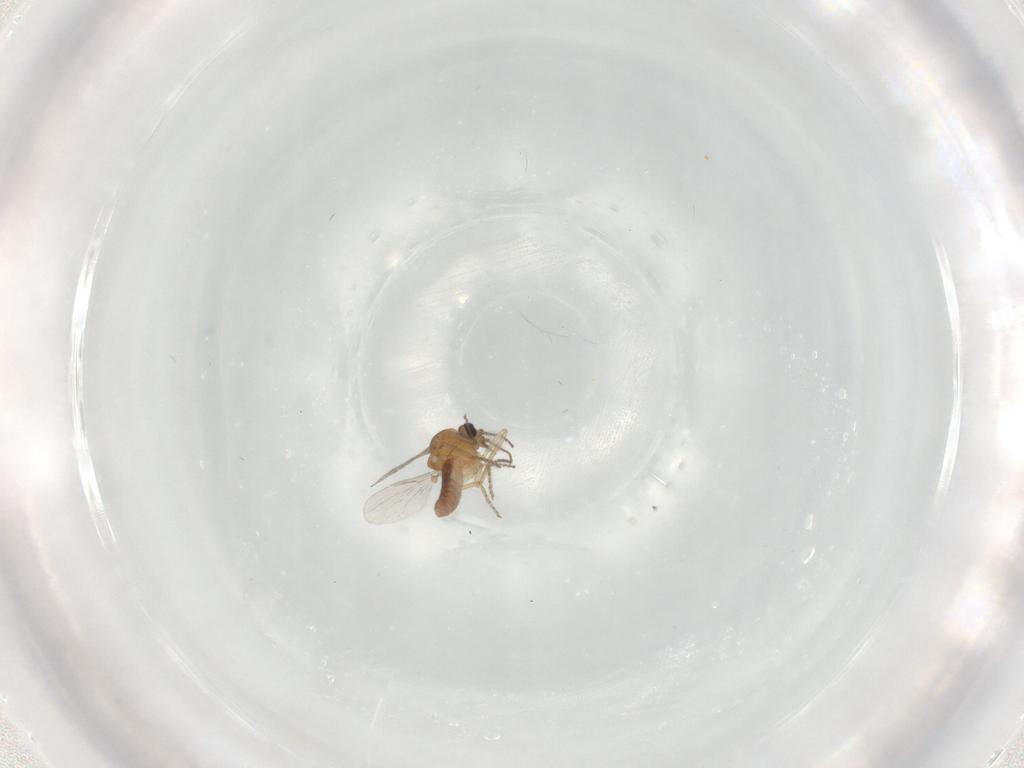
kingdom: Animalia
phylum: Arthropoda
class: Insecta
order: Diptera
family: Ceratopogonidae
